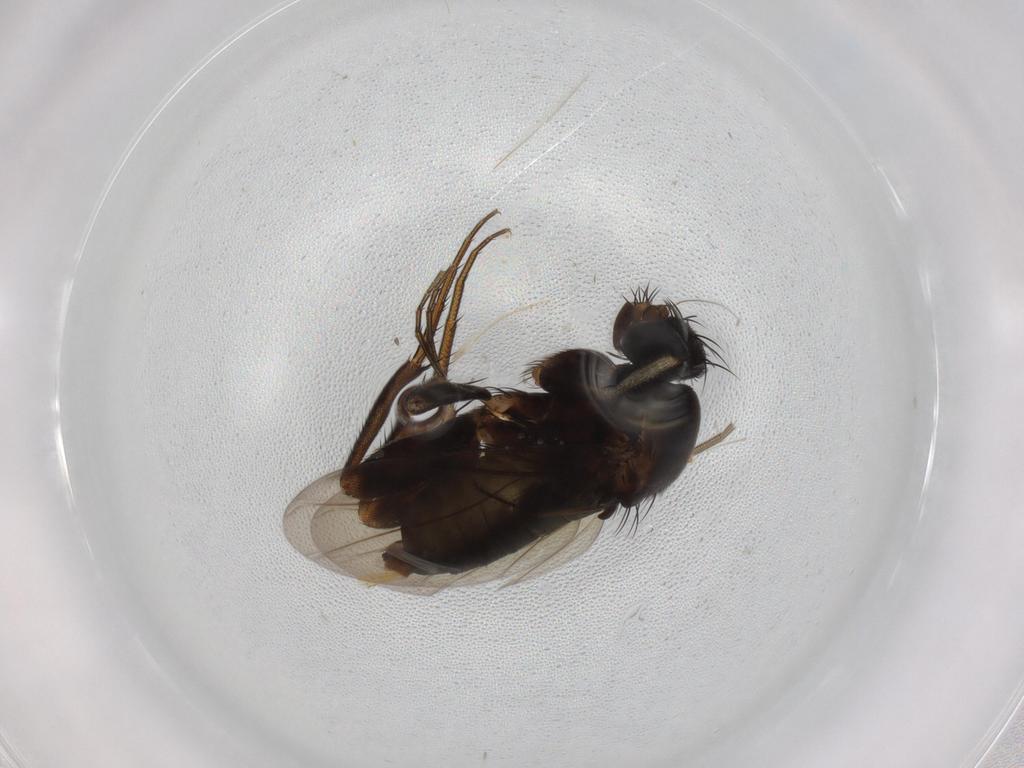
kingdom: Animalia
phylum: Arthropoda
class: Insecta
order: Diptera
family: Phoridae
